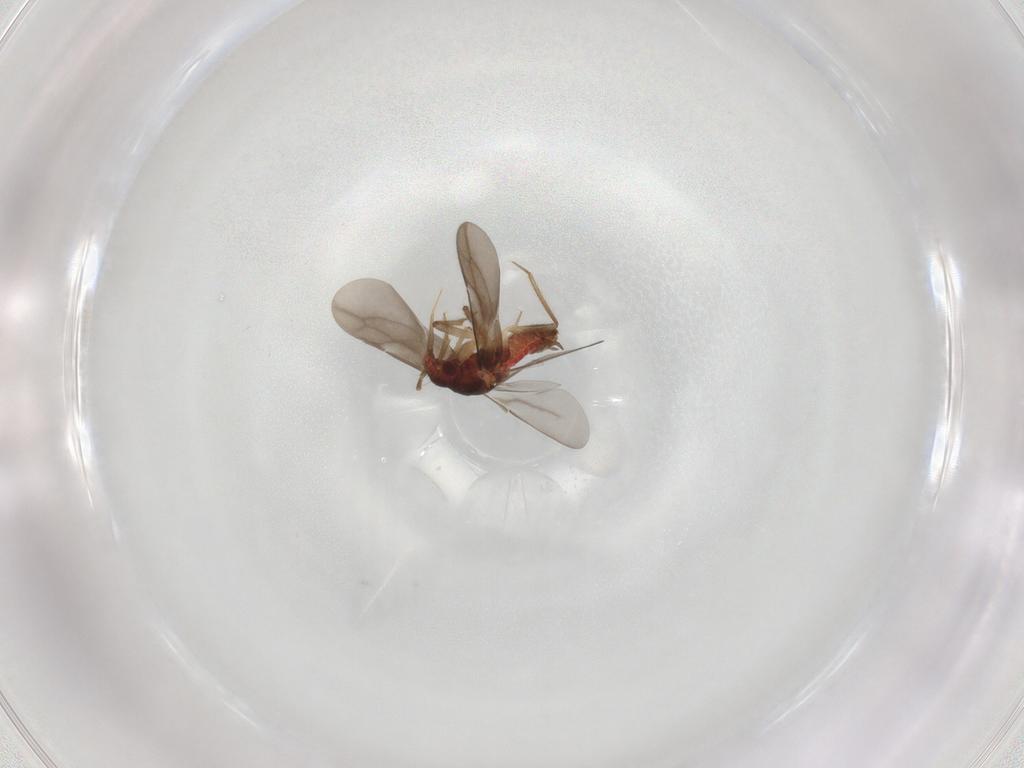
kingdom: Animalia
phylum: Arthropoda
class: Insecta
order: Hemiptera
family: Ceratocombidae
